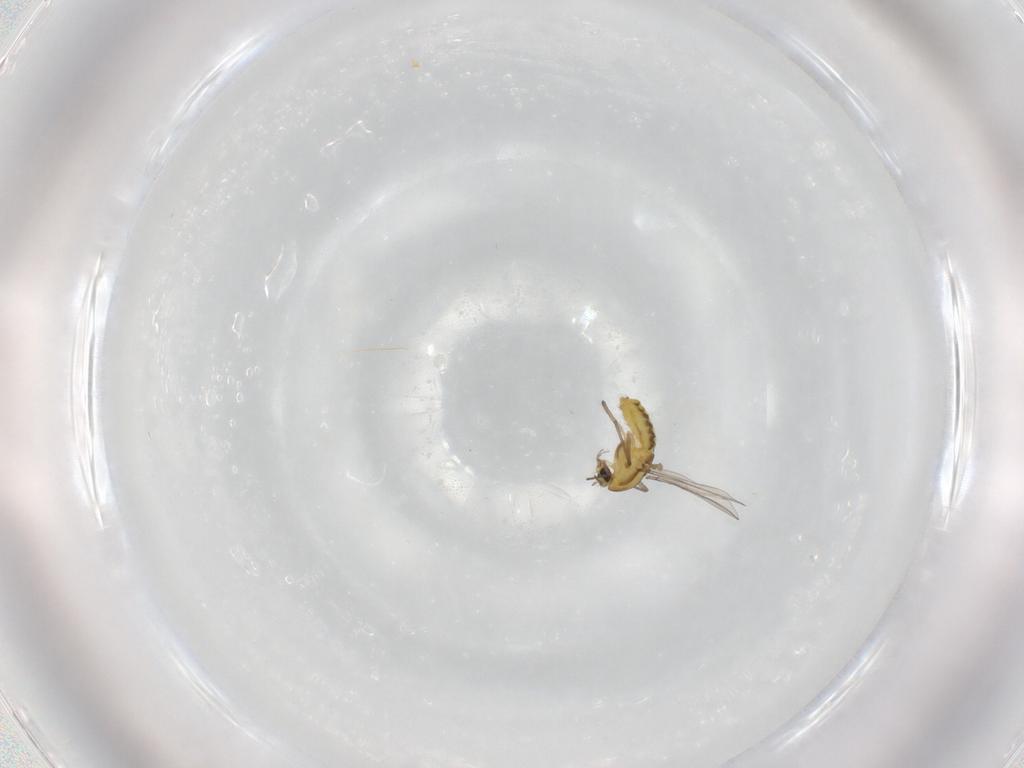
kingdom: Animalia
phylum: Arthropoda
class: Insecta
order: Diptera
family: Chironomidae
